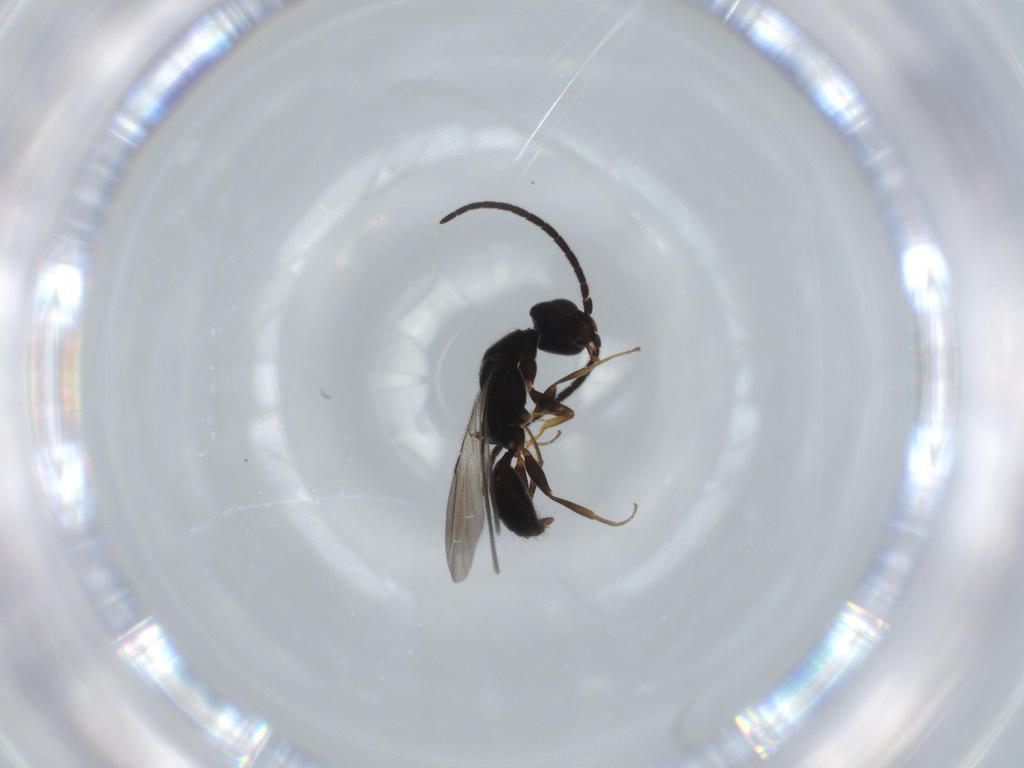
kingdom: Animalia
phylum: Arthropoda
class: Insecta
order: Hymenoptera
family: Bethylidae
